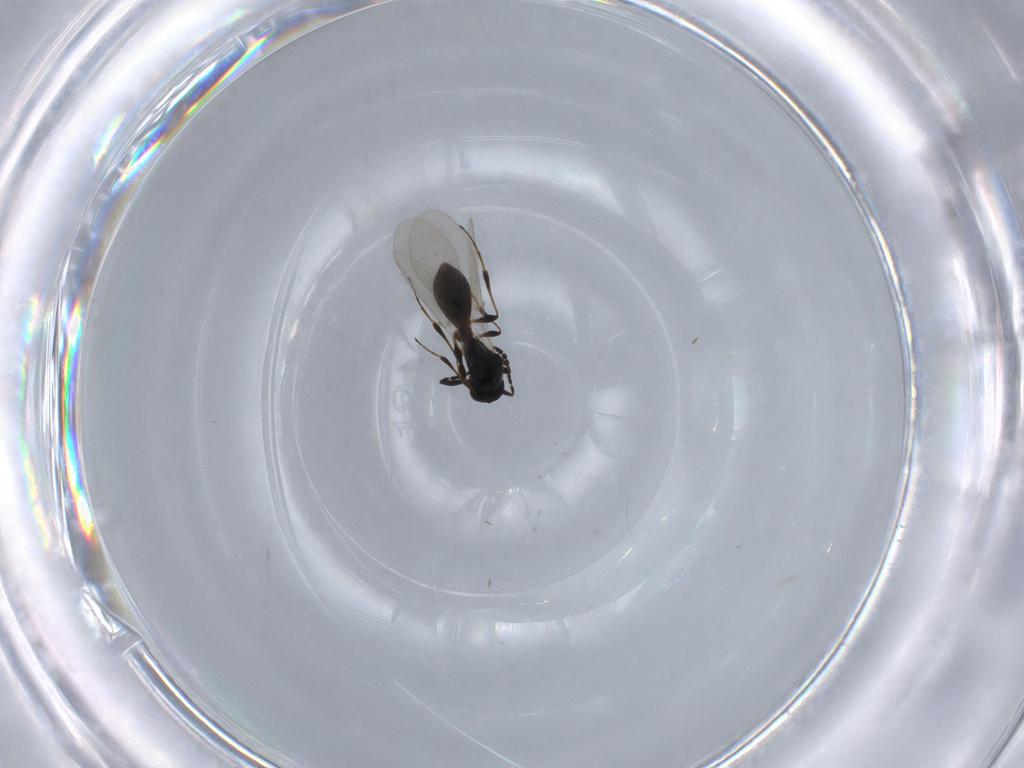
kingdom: Animalia
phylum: Arthropoda
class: Insecta
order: Hymenoptera
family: Platygastridae
